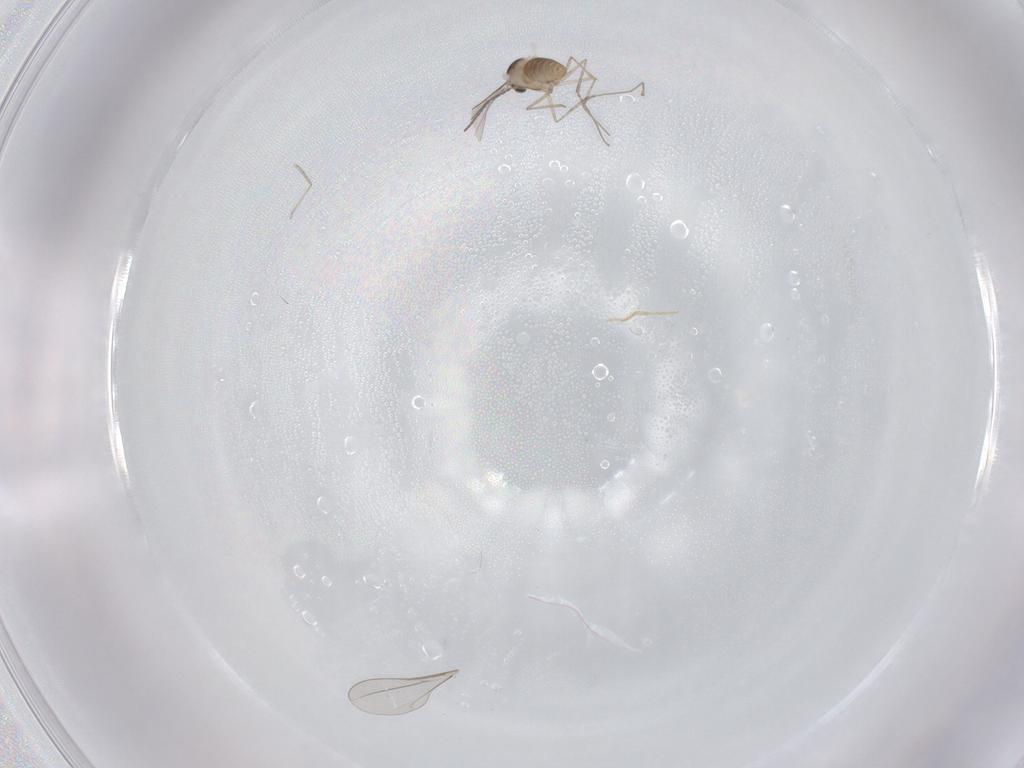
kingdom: Animalia
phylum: Arthropoda
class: Insecta
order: Diptera
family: Cecidomyiidae
